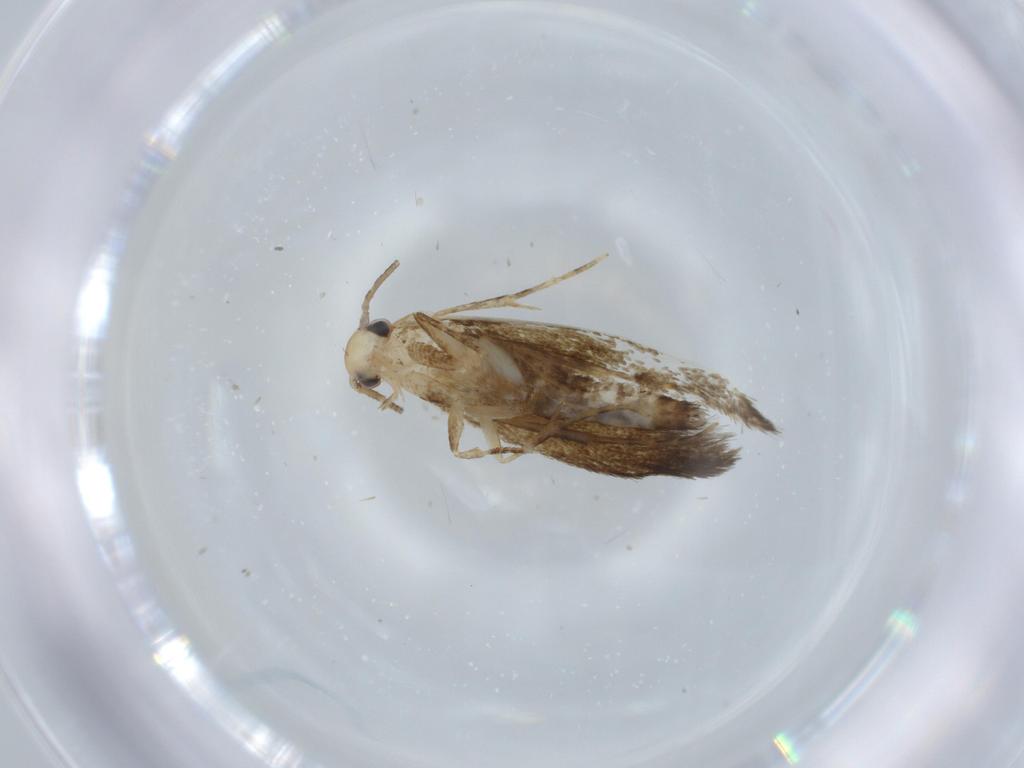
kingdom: Animalia
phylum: Arthropoda
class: Insecta
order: Lepidoptera
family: Tineidae
